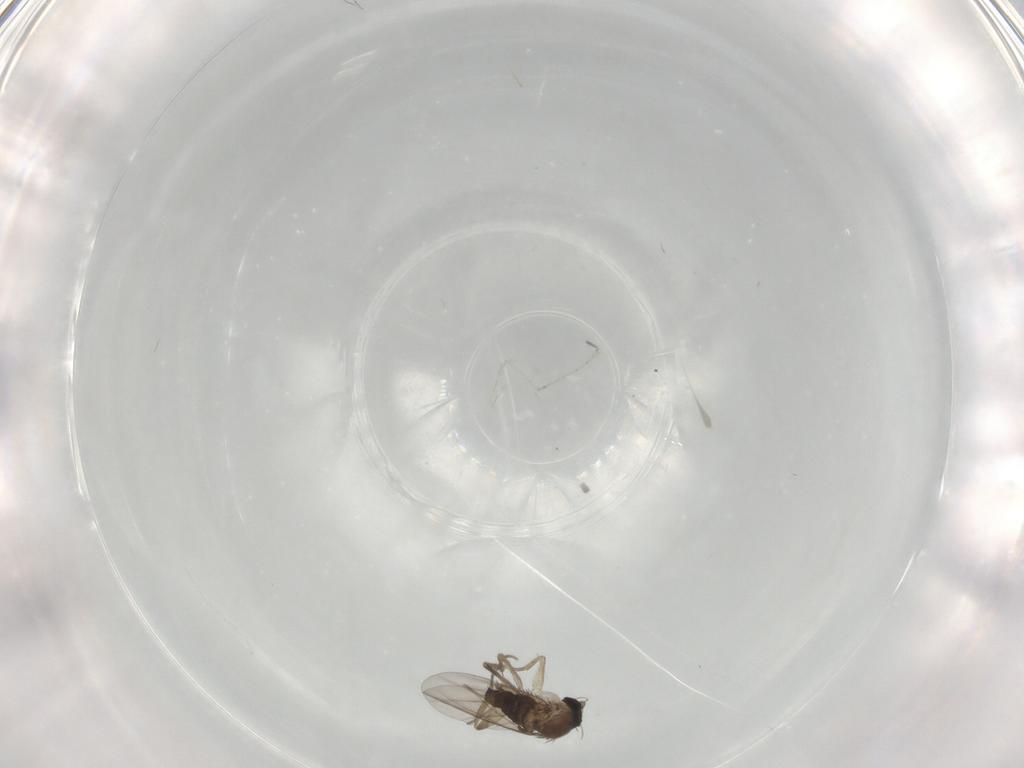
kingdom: Animalia
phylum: Arthropoda
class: Insecta
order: Diptera
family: Phoridae
